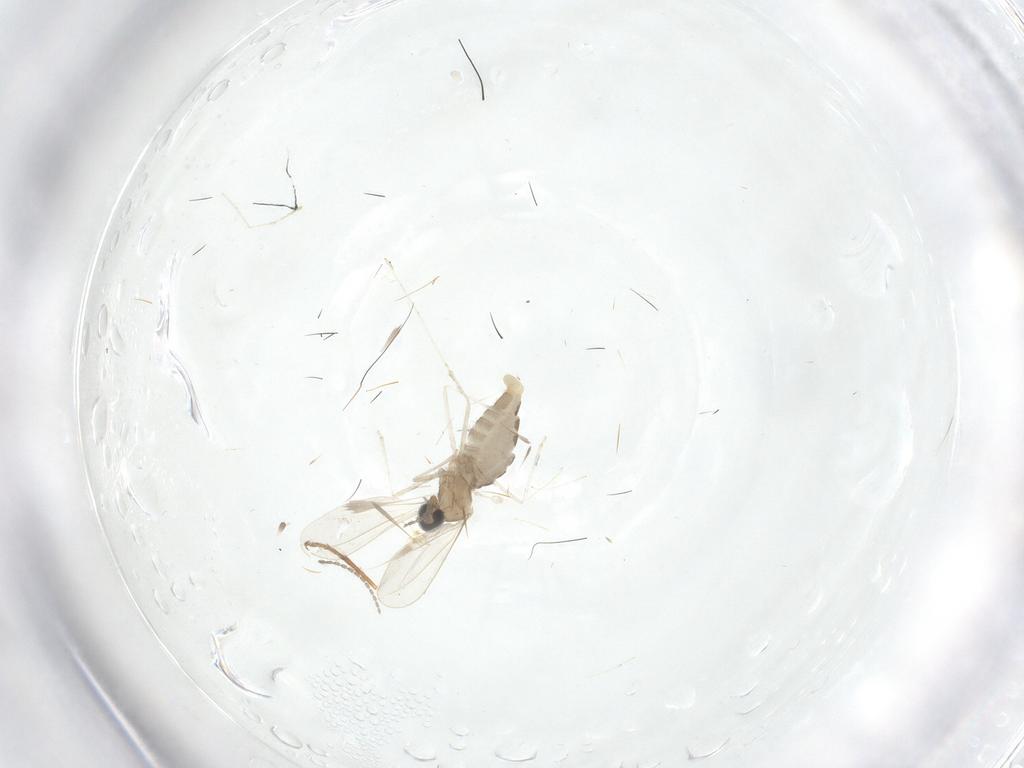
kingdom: Animalia
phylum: Arthropoda
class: Insecta
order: Diptera
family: Cecidomyiidae
